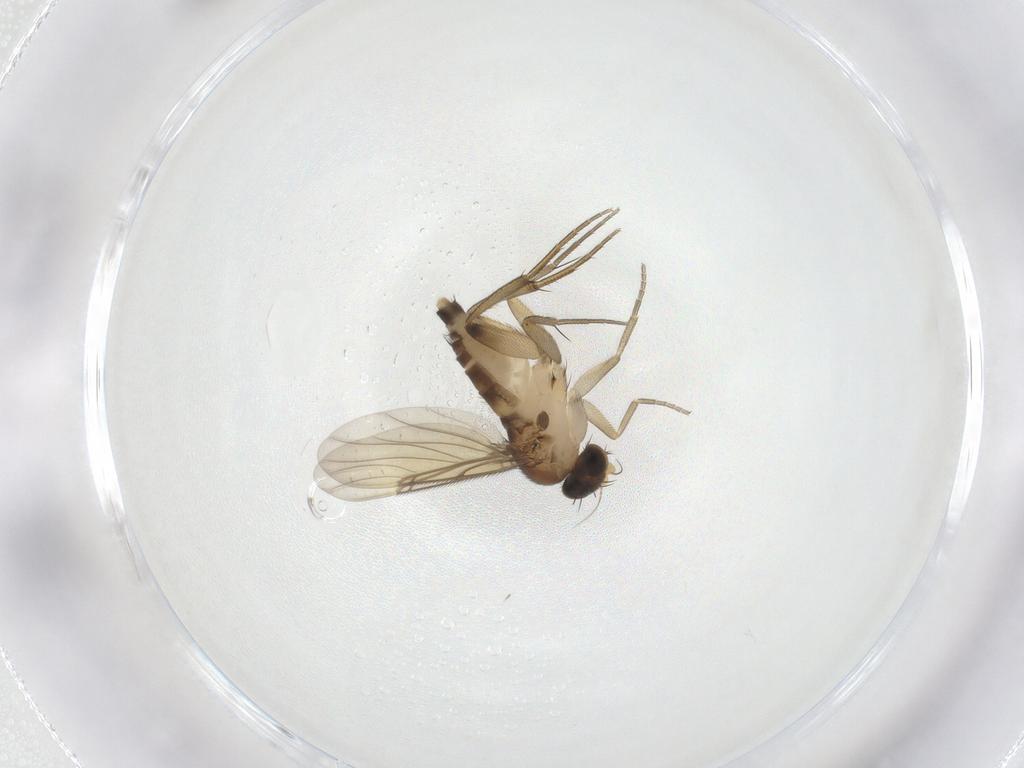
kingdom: Animalia
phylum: Arthropoda
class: Insecta
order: Diptera
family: Phoridae
